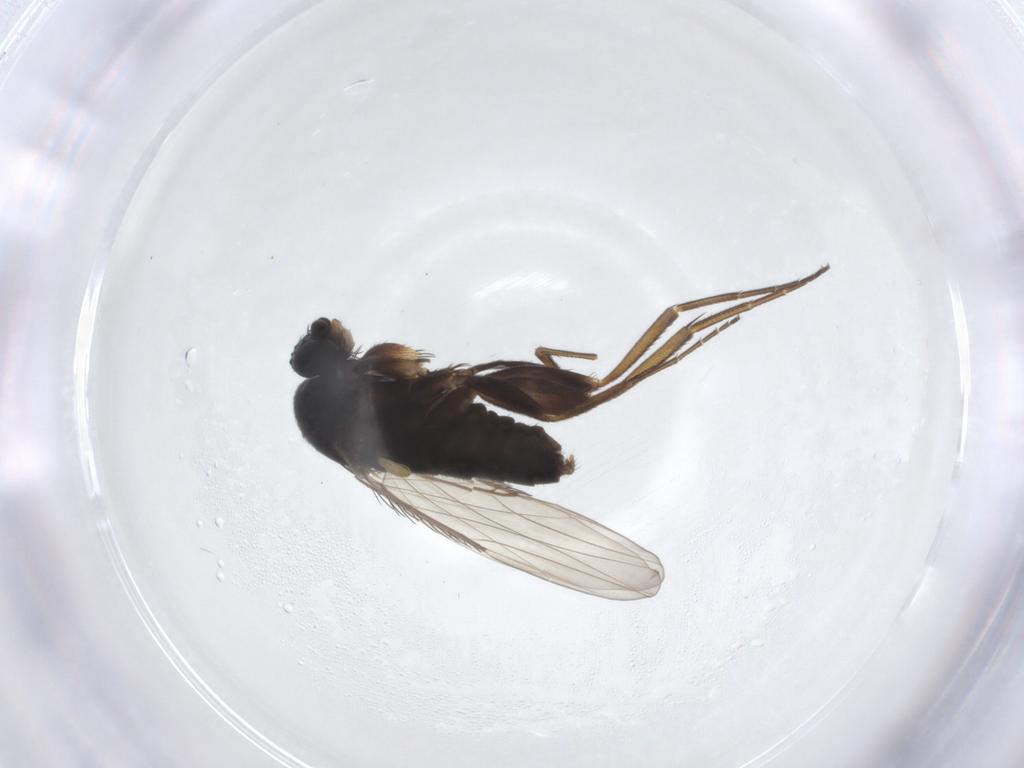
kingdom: Animalia
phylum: Arthropoda
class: Insecta
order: Diptera
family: Phoridae
